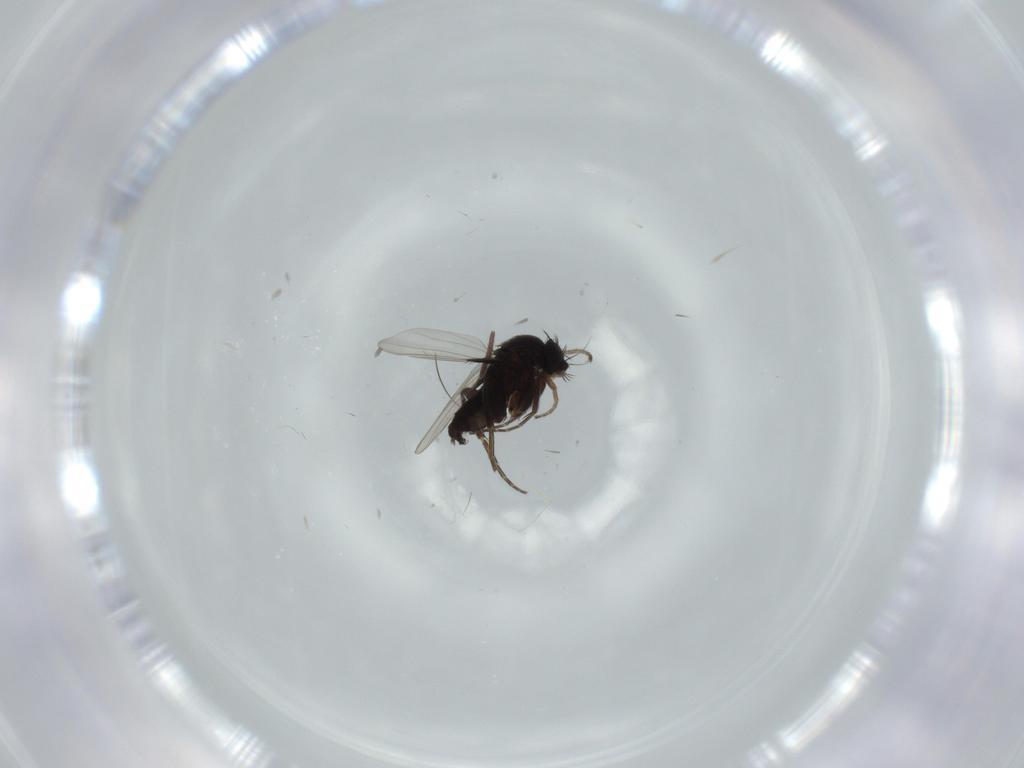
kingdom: Animalia
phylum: Arthropoda
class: Insecta
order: Diptera
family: Phoridae
